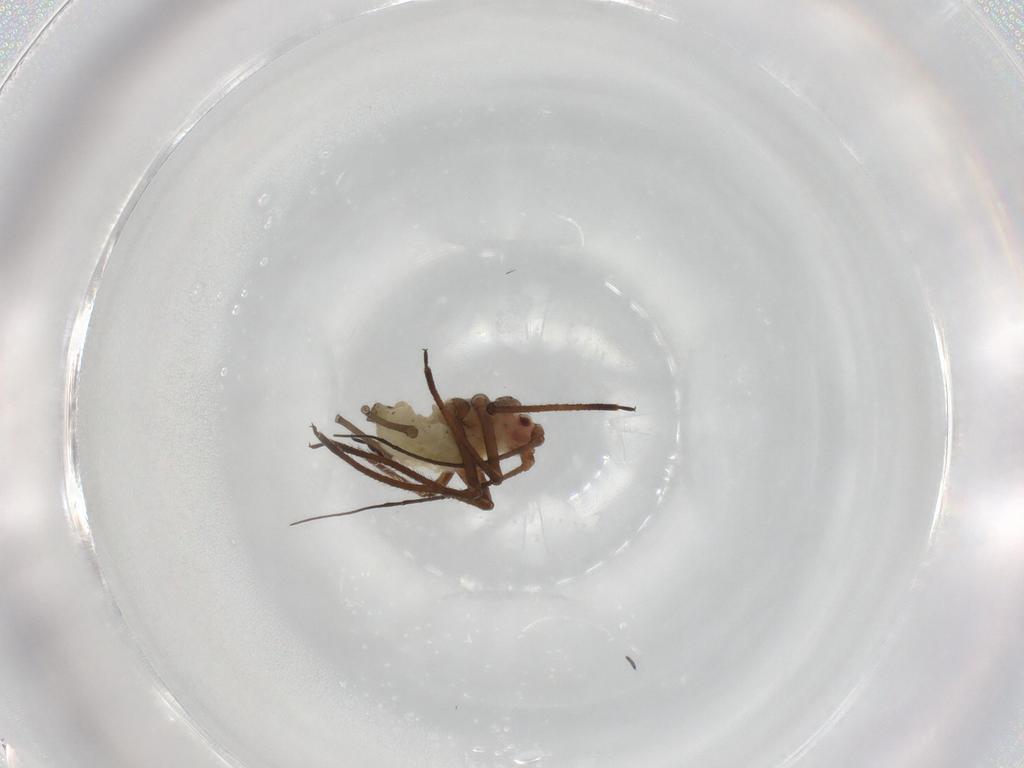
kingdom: Animalia
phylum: Arthropoda
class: Insecta
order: Hemiptera
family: Aphididae
